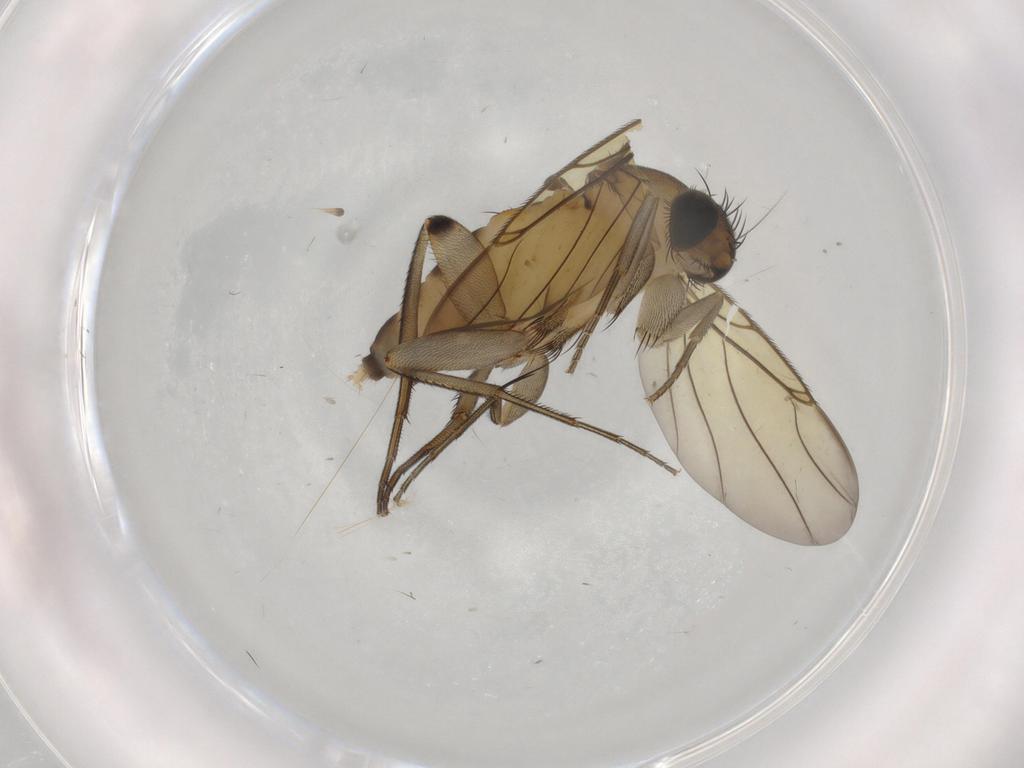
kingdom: Animalia
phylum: Arthropoda
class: Insecta
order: Diptera
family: Phoridae
